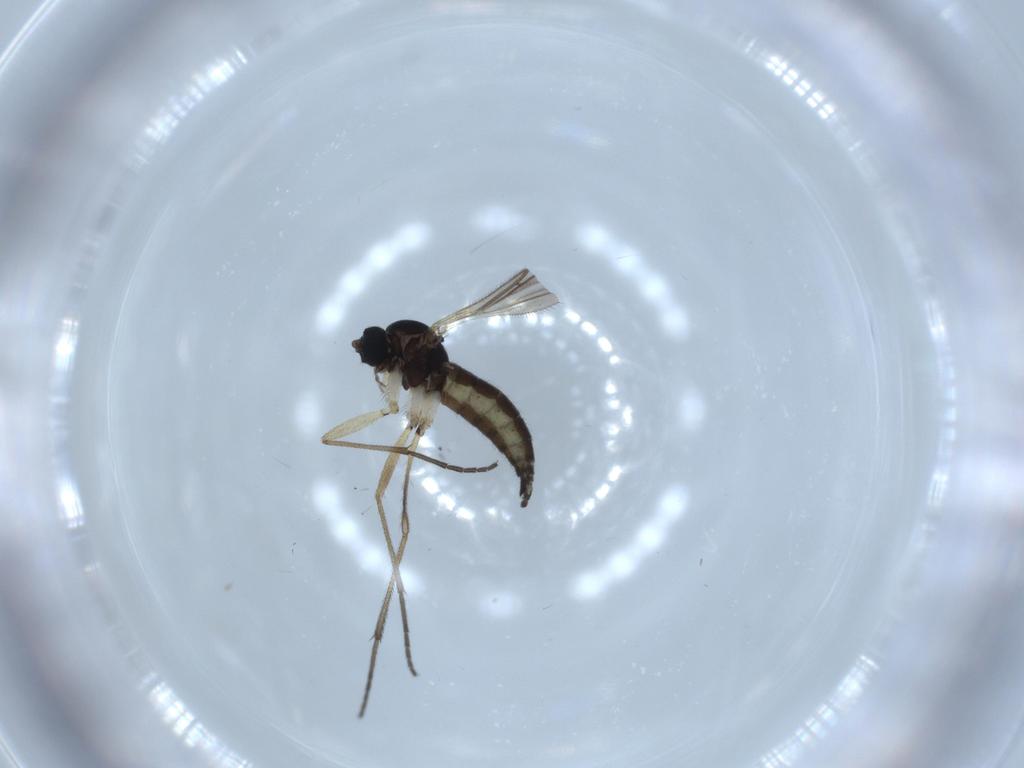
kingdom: Animalia
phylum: Arthropoda
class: Insecta
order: Diptera
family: Sciaridae
